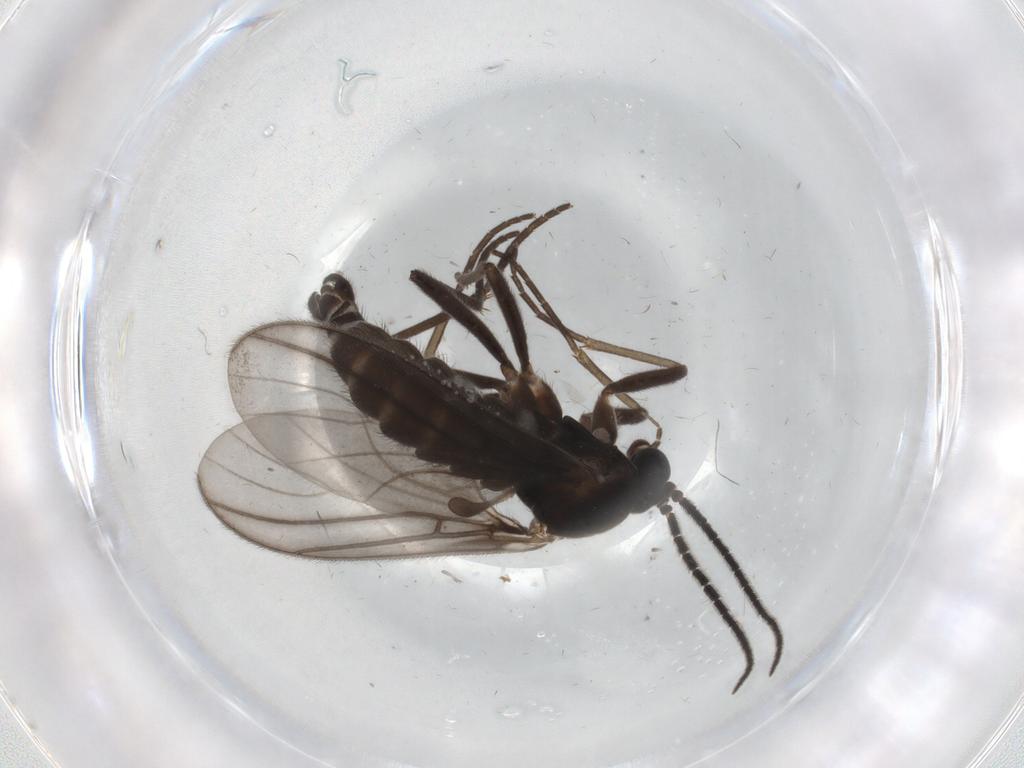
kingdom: Animalia
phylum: Arthropoda
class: Insecta
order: Diptera
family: Sciaridae
